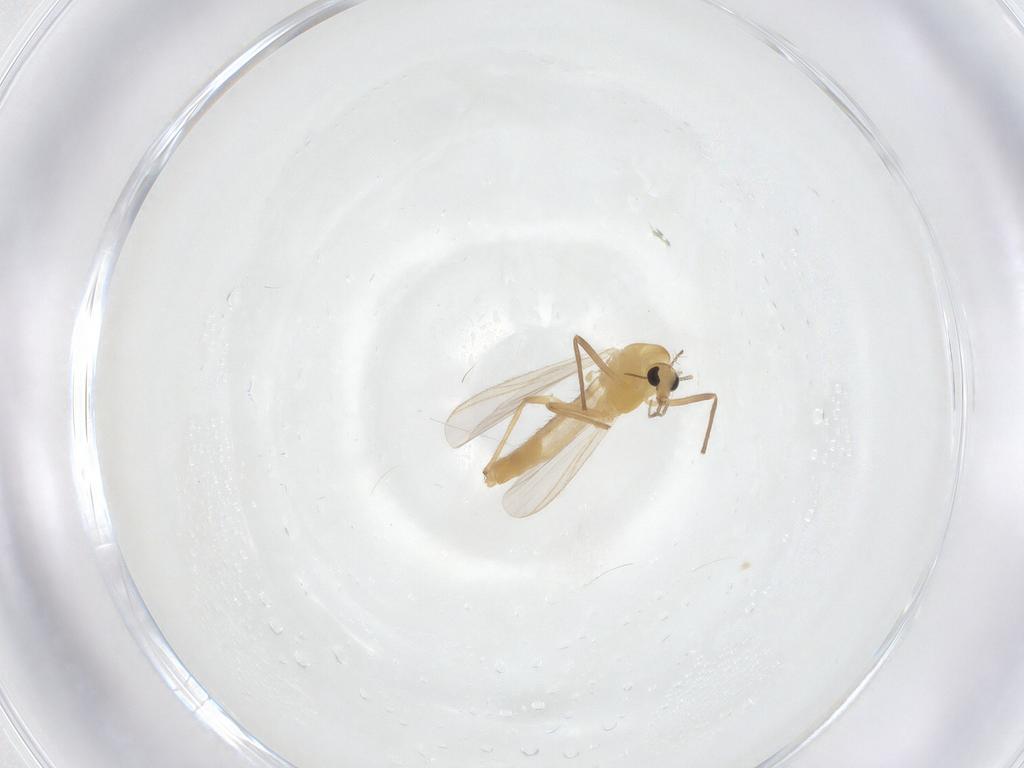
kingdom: Animalia
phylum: Arthropoda
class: Insecta
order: Diptera
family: Chironomidae
